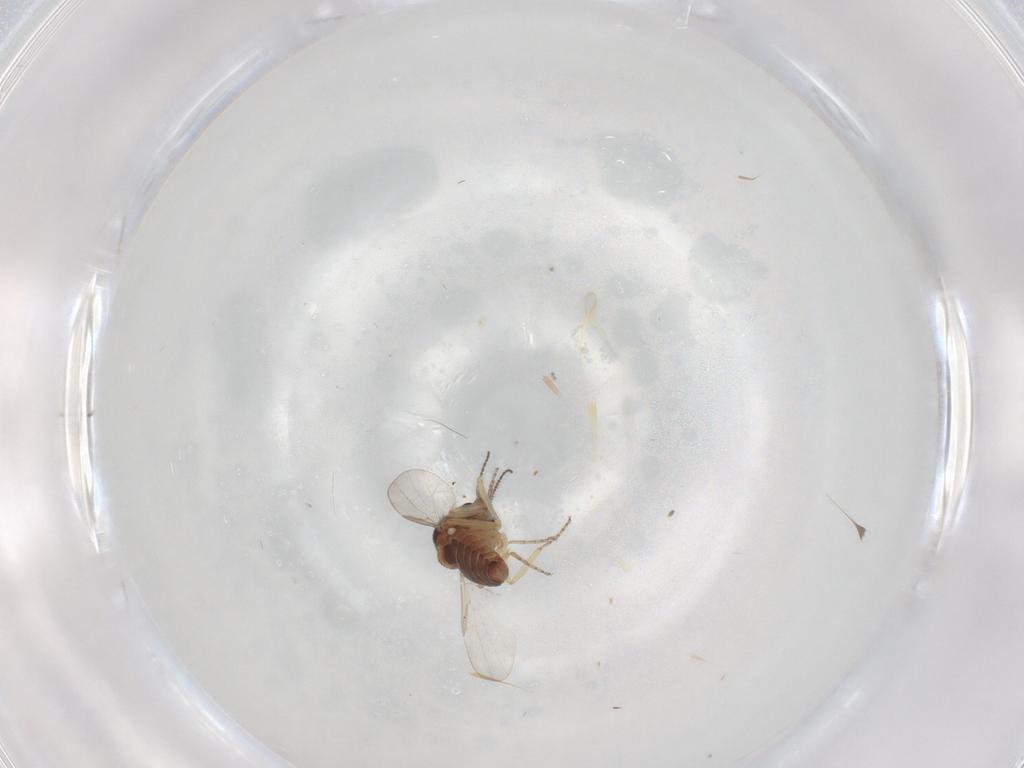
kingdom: Animalia
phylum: Arthropoda
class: Insecta
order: Diptera
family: Ceratopogonidae
